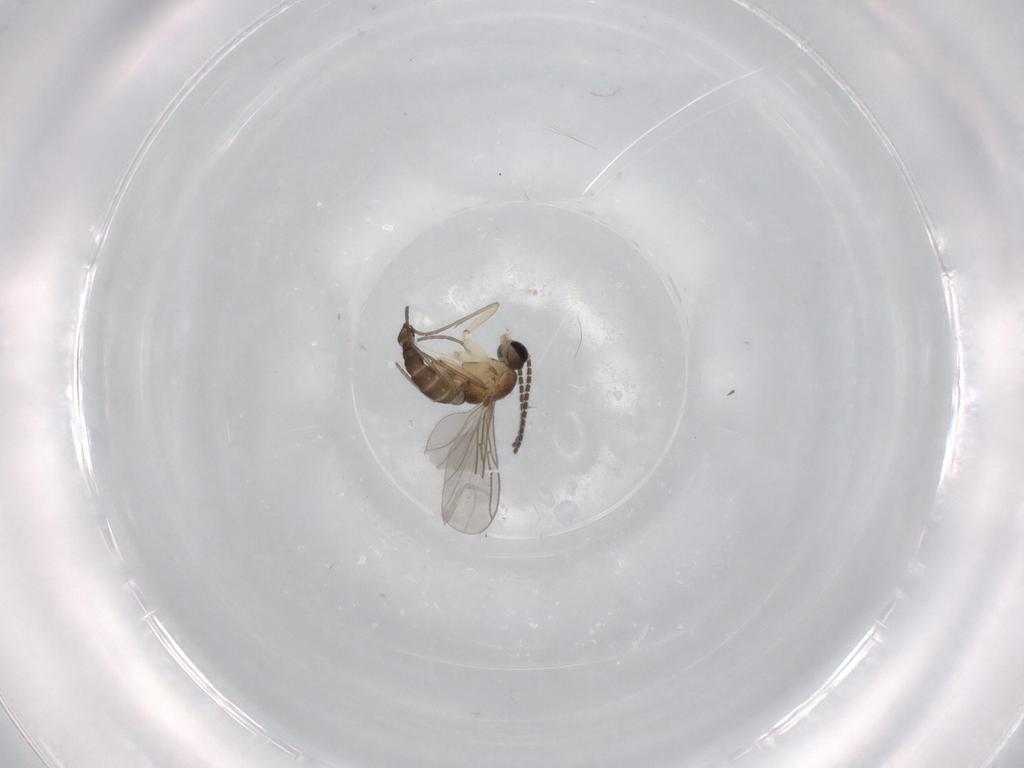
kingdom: Animalia
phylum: Arthropoda
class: Insecta
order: Diptera
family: Sciaridae
